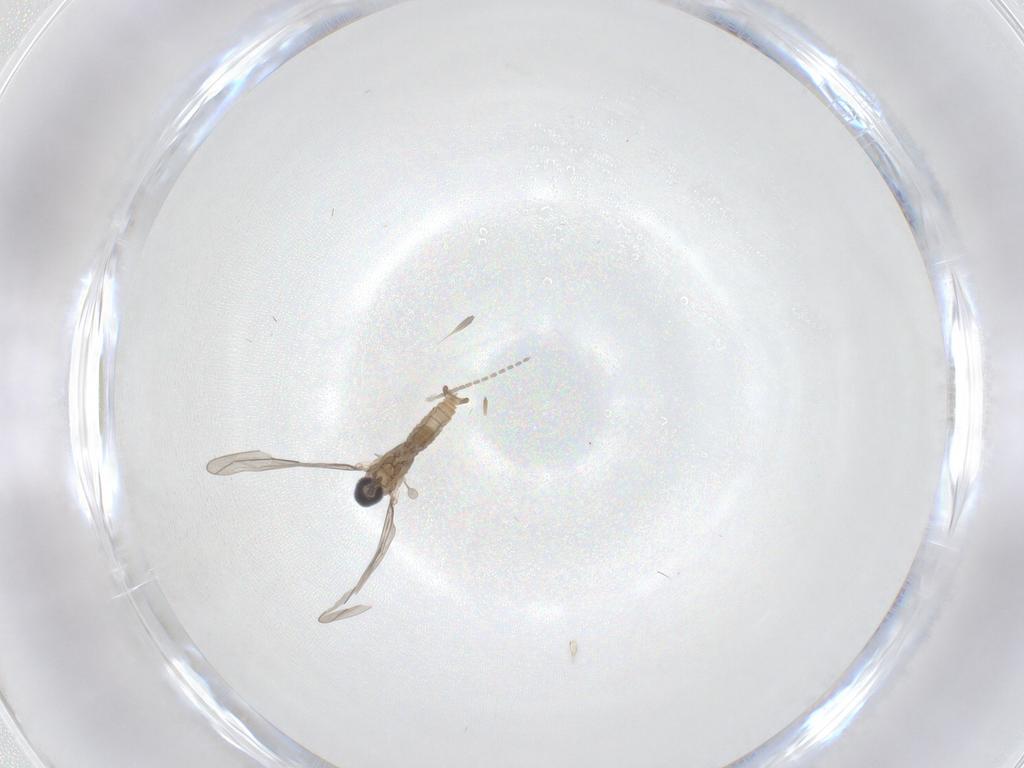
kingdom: Animalia
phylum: Arthropoda
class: Insecta
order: Diptera
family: Cecidomyiidae
